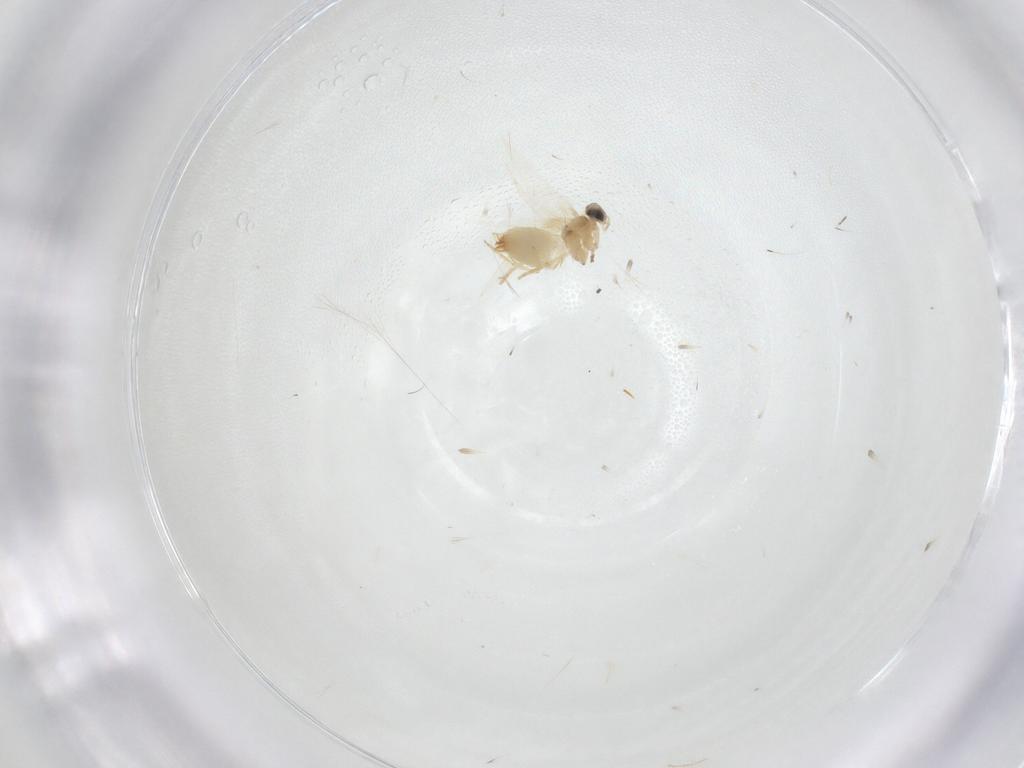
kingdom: Animalia
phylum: Arthropoda
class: Insecta
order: Lepidoptera
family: Crambidae
